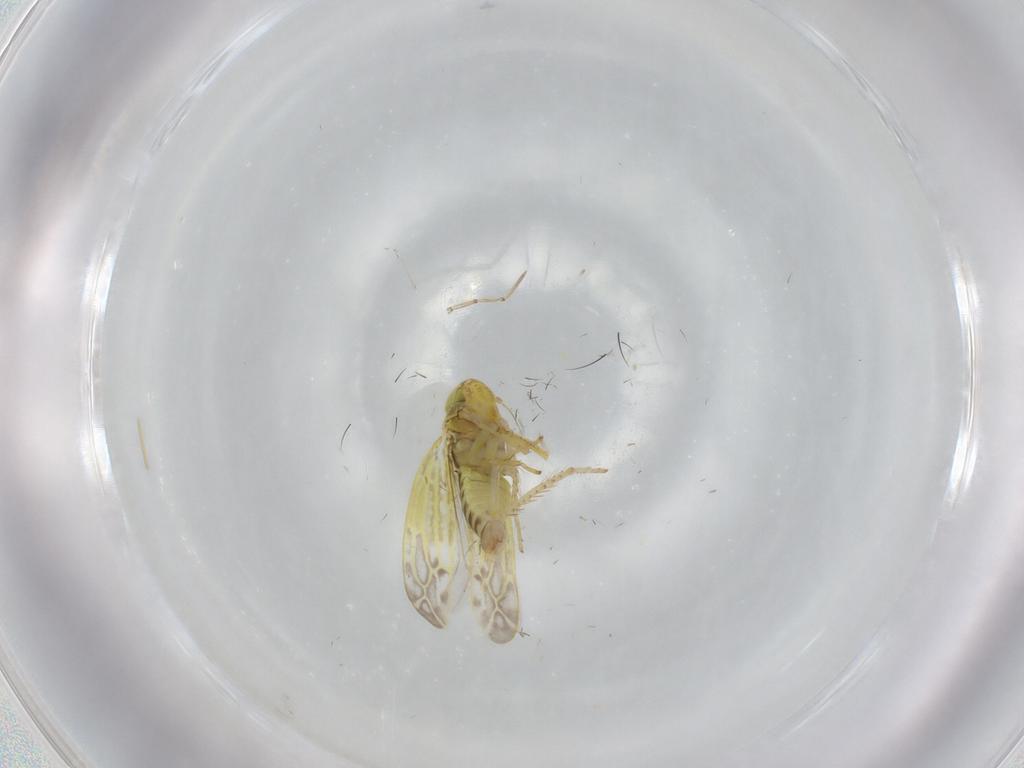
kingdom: Animalia
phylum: Arthropoda
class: Insecta
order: Hemiptera
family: Cicadellidae
